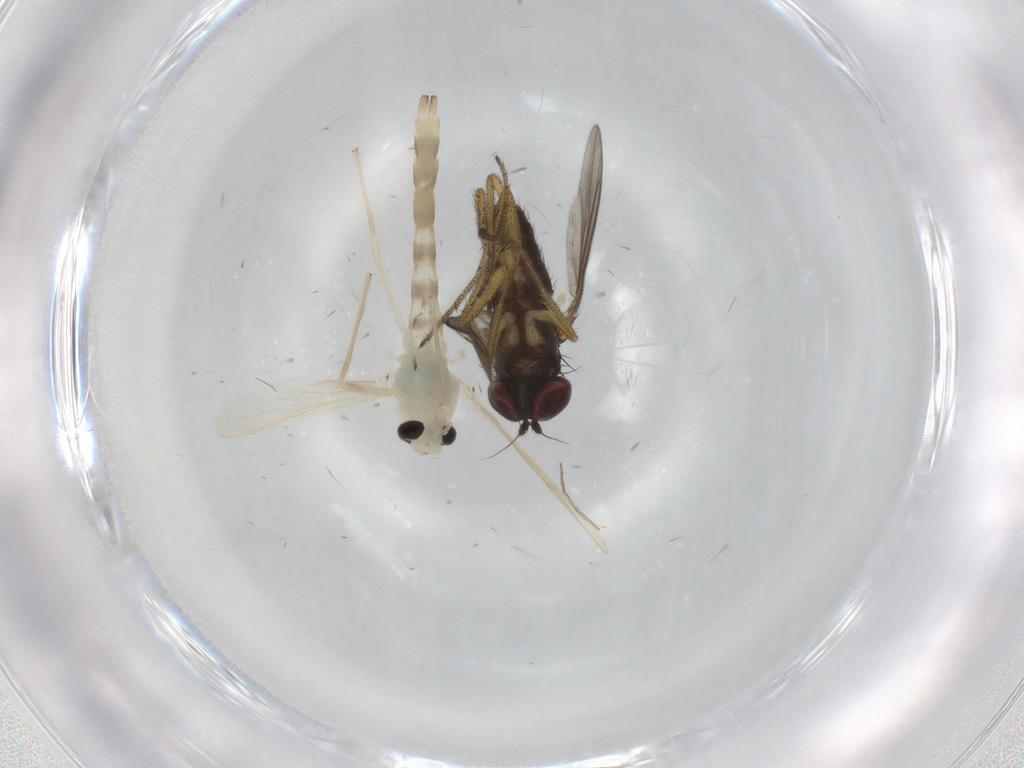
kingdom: Animalia
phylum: Arthropoda
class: Insecta
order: Diptera
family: Chironomidae
